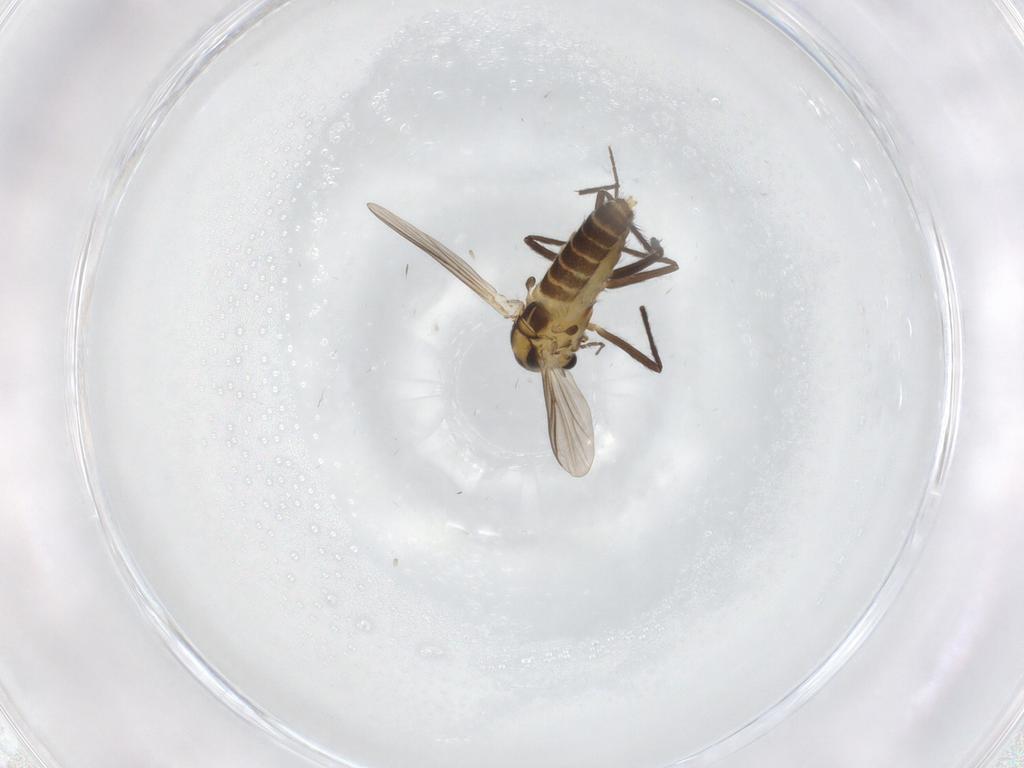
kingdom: Animalia
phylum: Arthropoda
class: Insecta
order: Diptera
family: Chironomidae
